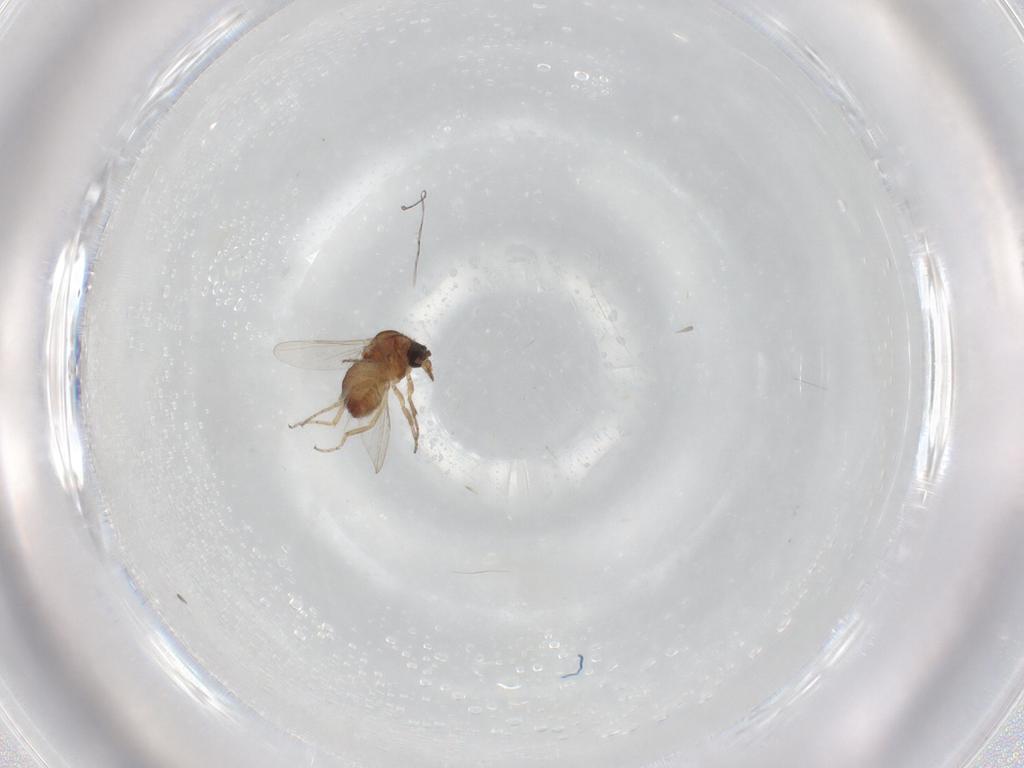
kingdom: Animalia
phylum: Arthropoda
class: Insecta
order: Diptera
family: Ceratopogonidae
